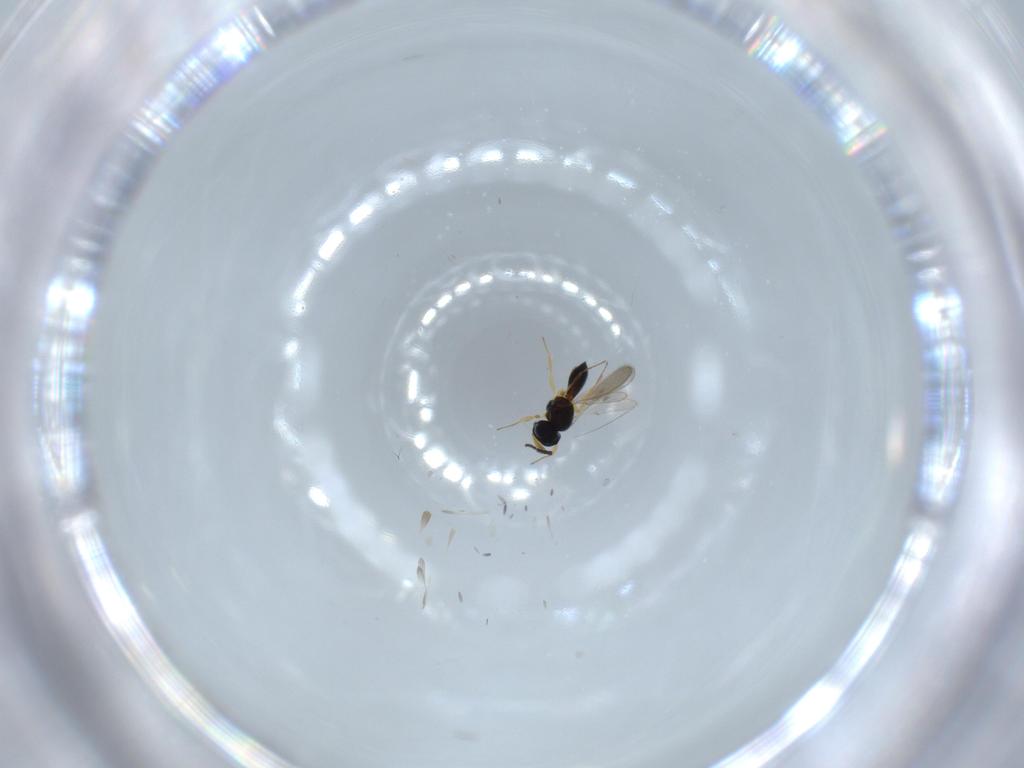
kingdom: Animalia
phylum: Arthropoda
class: Insecta
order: Hymenoptera
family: Scelionidae
